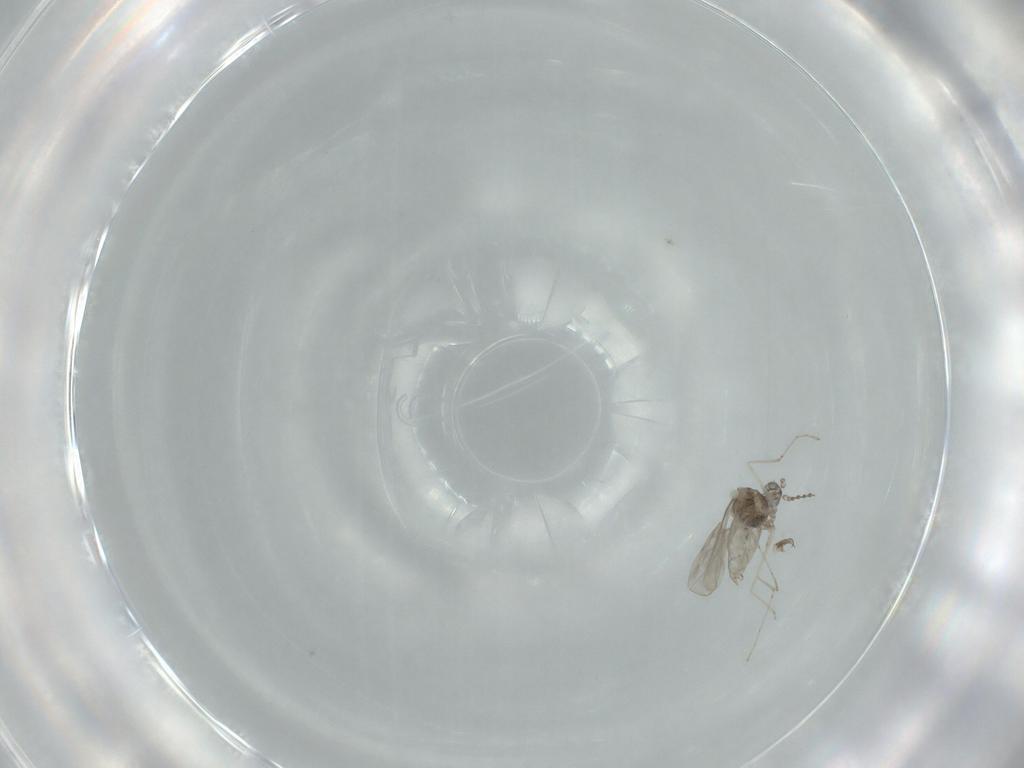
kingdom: Animalia
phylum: Arthropoda
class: Insecta
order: Diptera
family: Phoridae
